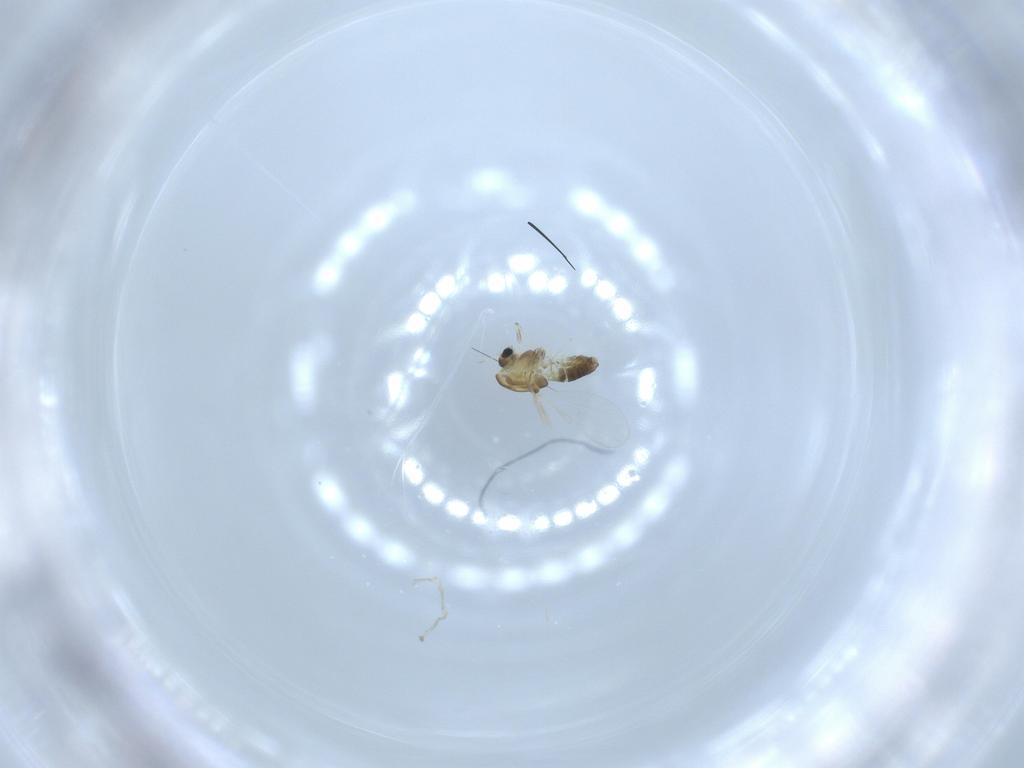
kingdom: Animalia
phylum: Arthropoda
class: Insecta
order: Diptera
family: Chironomidae
